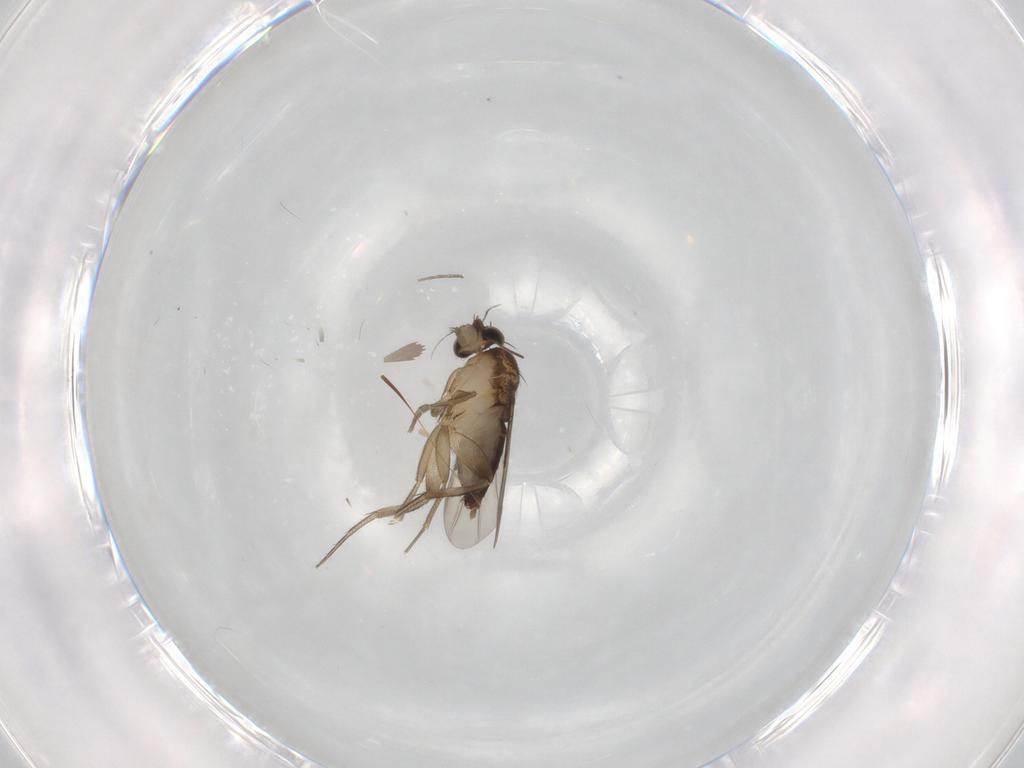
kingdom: Animalia
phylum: Arthropoda
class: Insecta
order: Diptera
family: Phoridae
